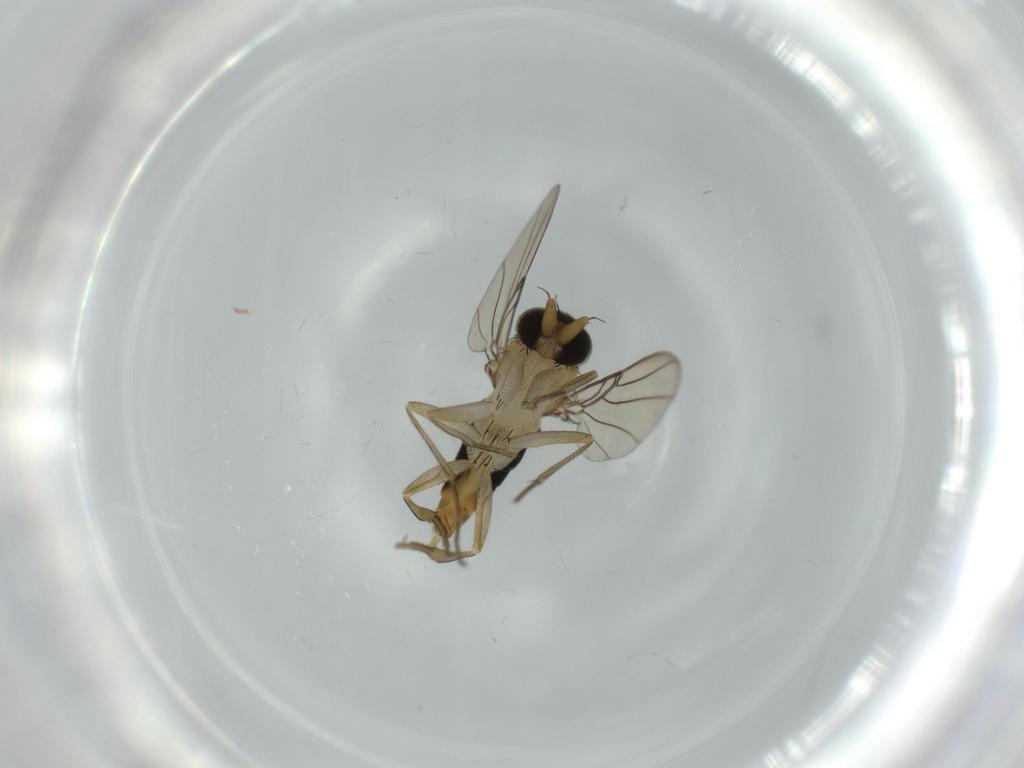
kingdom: Animalia
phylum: Arthropoda
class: Insecta
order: Diptera
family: Phoridae
